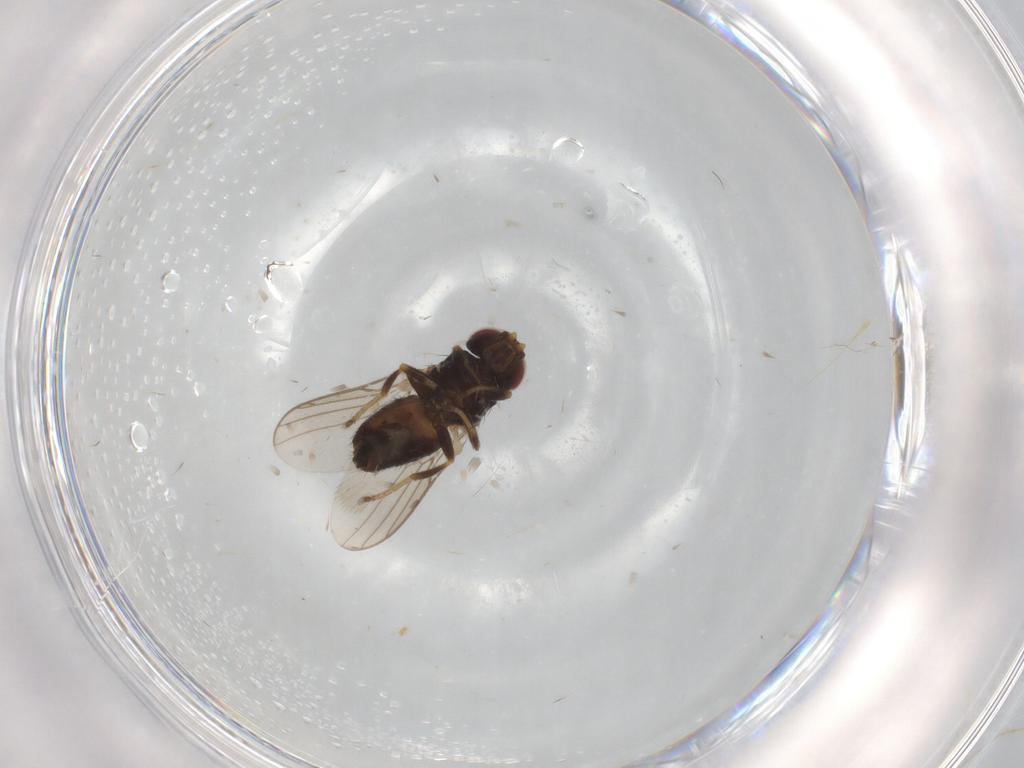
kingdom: Animalia
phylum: Arthropoda
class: Insecta
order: Diptera
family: Chloropidae
